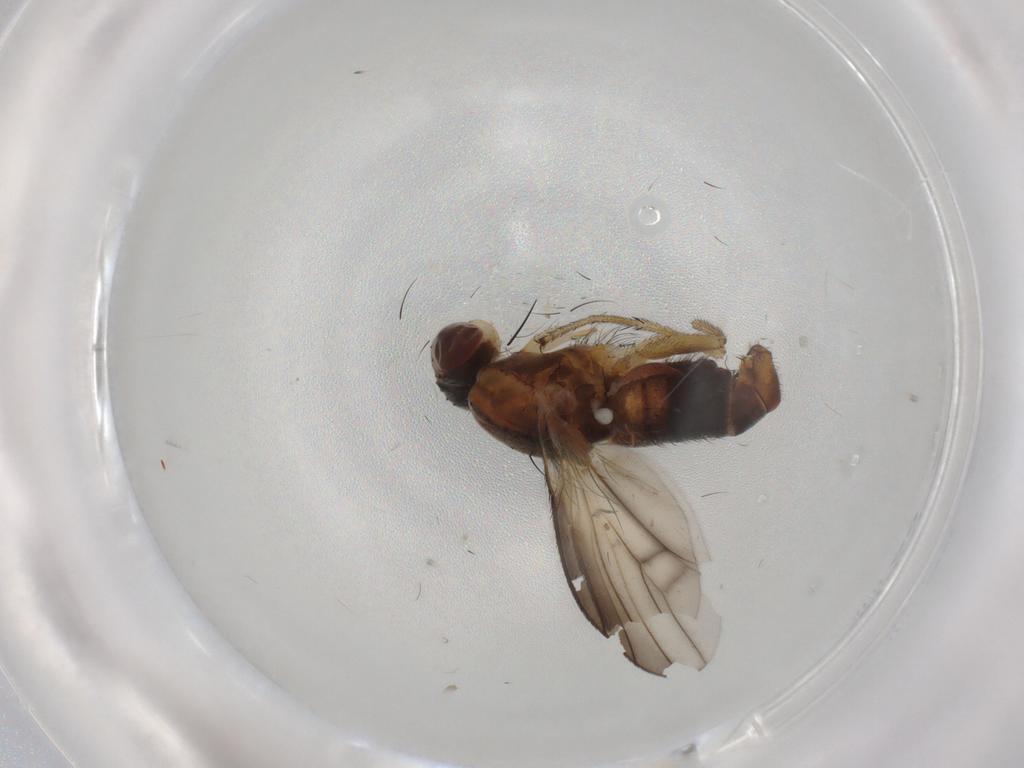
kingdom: Animalia
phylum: Arthropoda
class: Insecta
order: Diptera
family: Heleomyzidae
